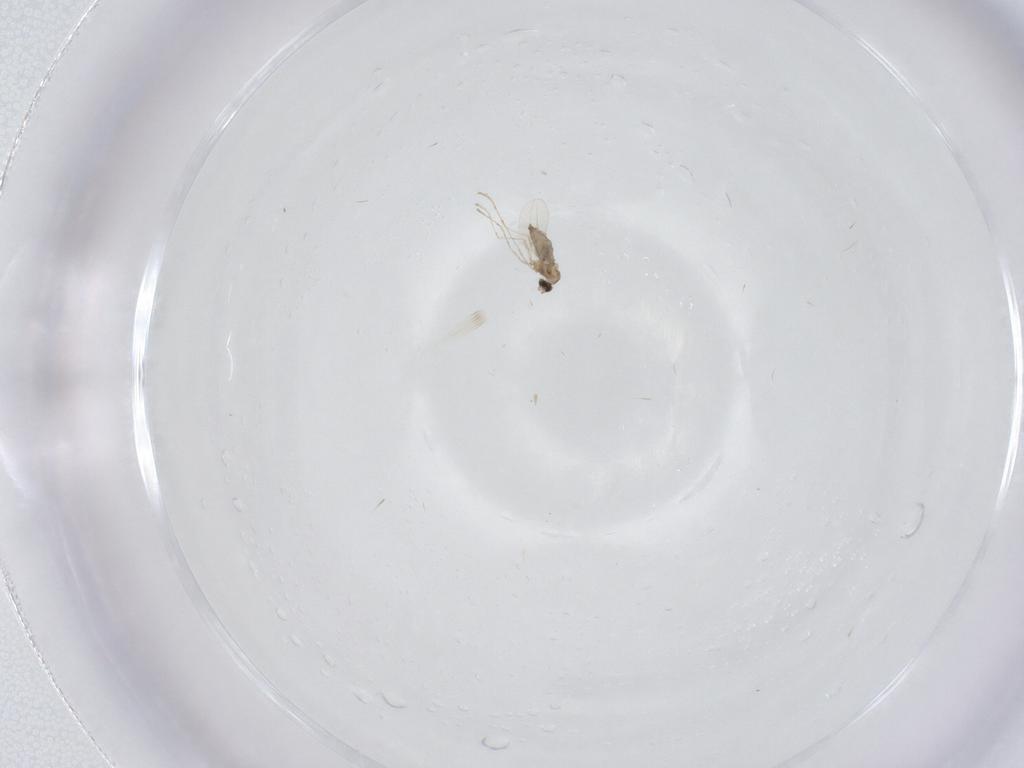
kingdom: Animalia
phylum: Arthropoda
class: Insecta
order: Diptera
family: Cecidomyiidae
